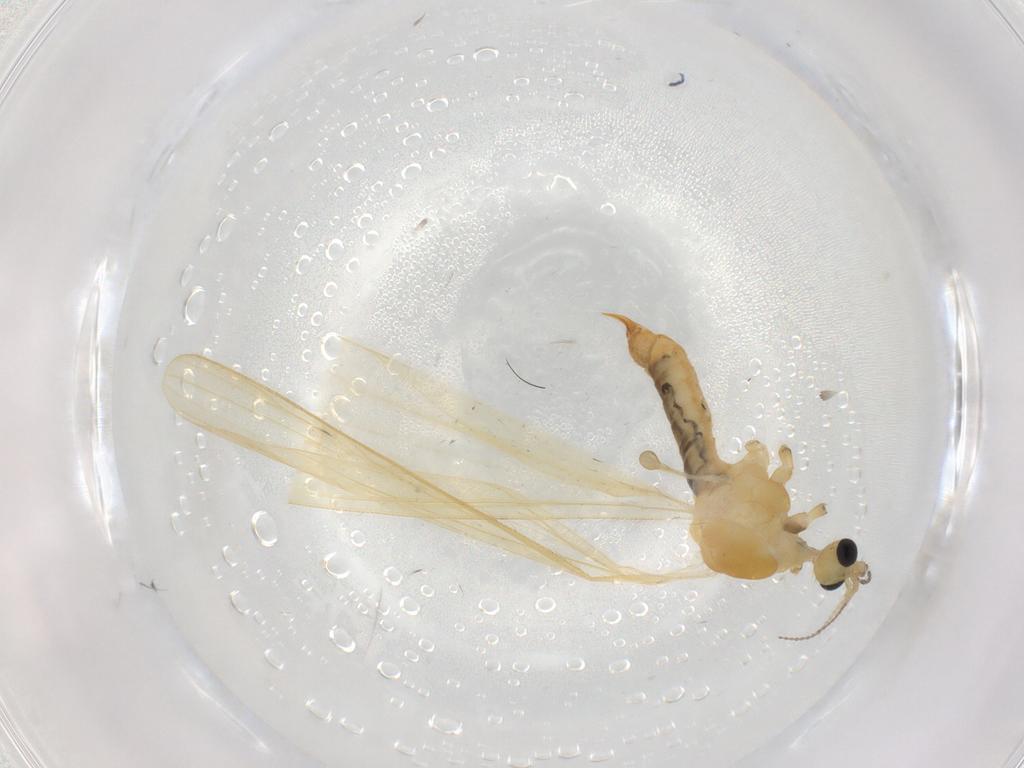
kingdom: Animalia
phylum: Arthropoda
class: Insecta
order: Diptera
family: Limoniidae
